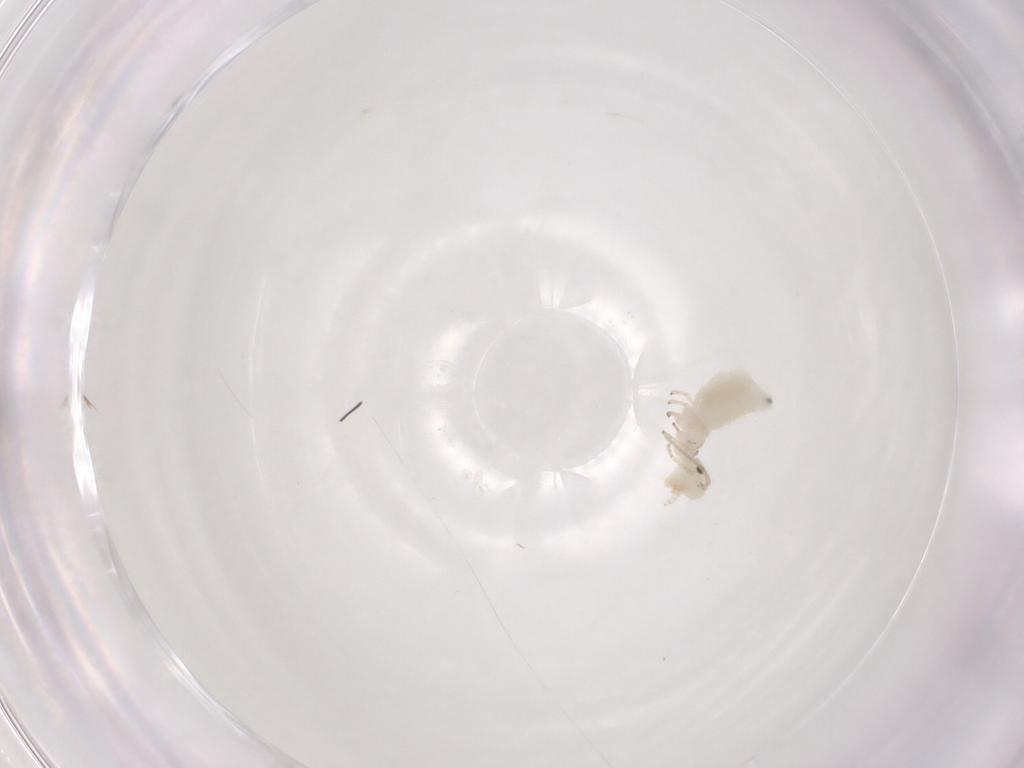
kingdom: Animalia
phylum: Arthropoda
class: Insecta
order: Psocodea
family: Caeciliusidae
